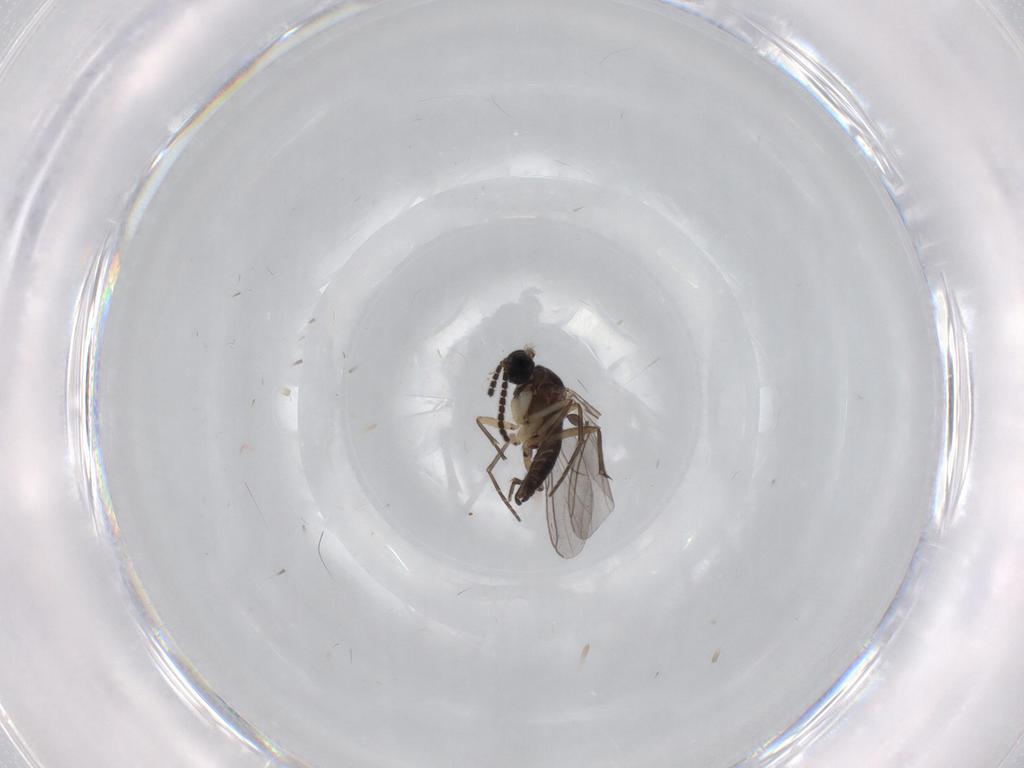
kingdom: Animalia
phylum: Arthropoda
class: Insecta
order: Diptera
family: Sciaridae
